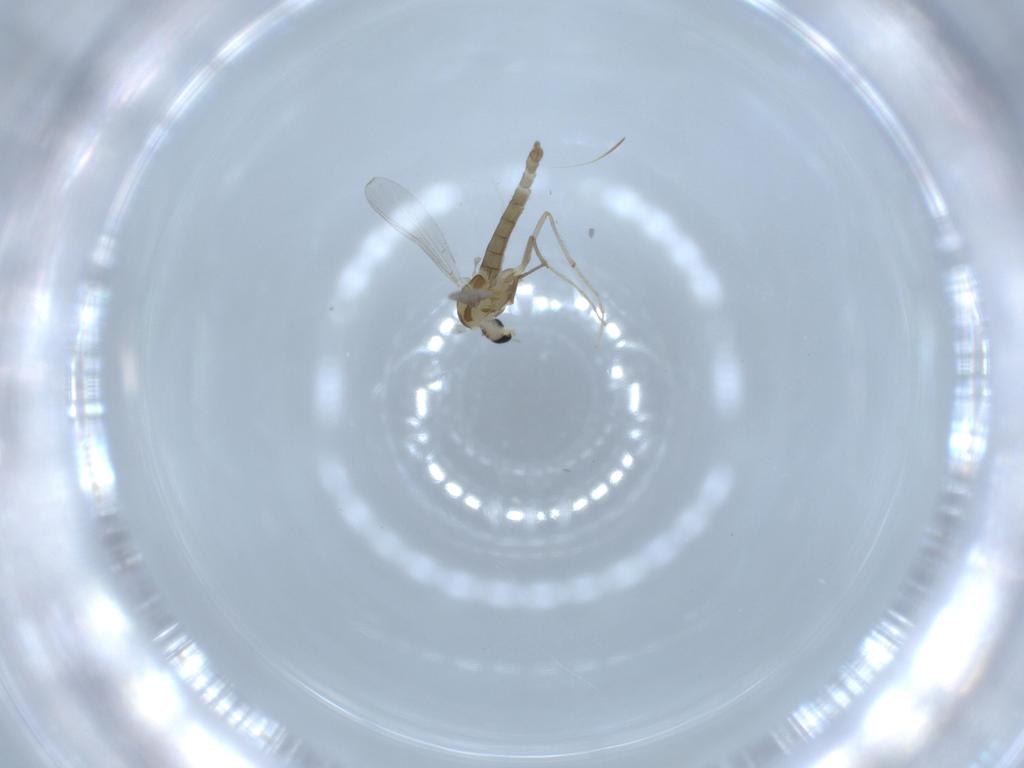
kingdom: Animalia
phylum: Arthropoda
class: Insecta
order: Diptera
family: Chironomidae
